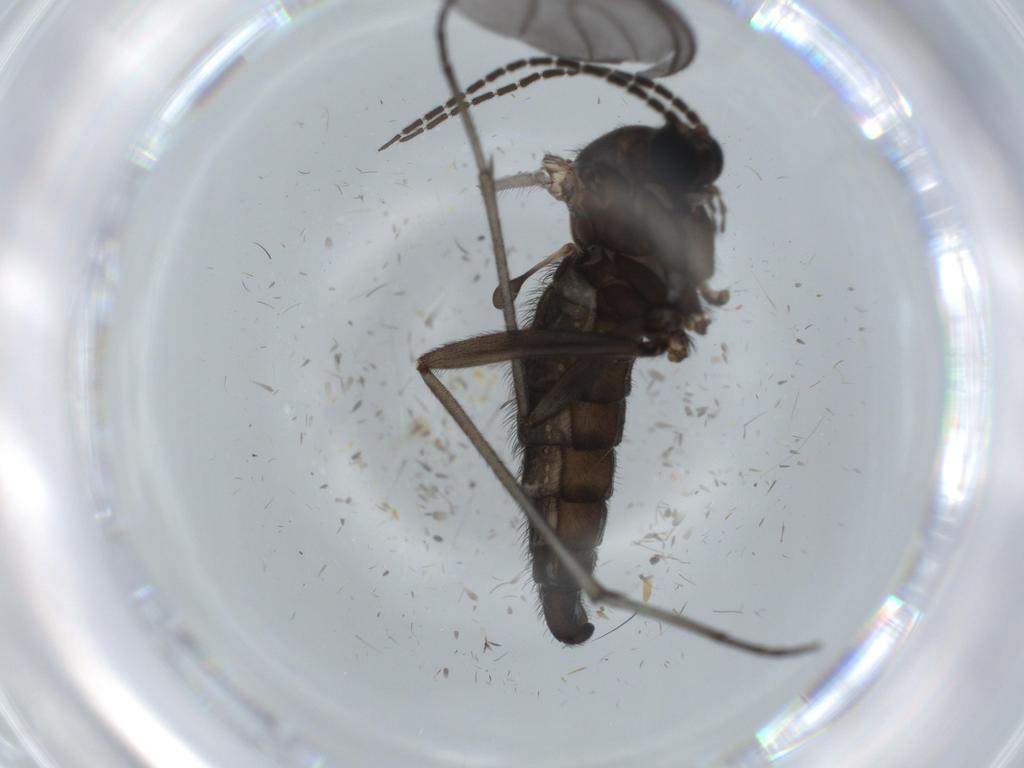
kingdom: Animalia
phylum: Arthropoda
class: Insecta
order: Diptera
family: Sciaridae
